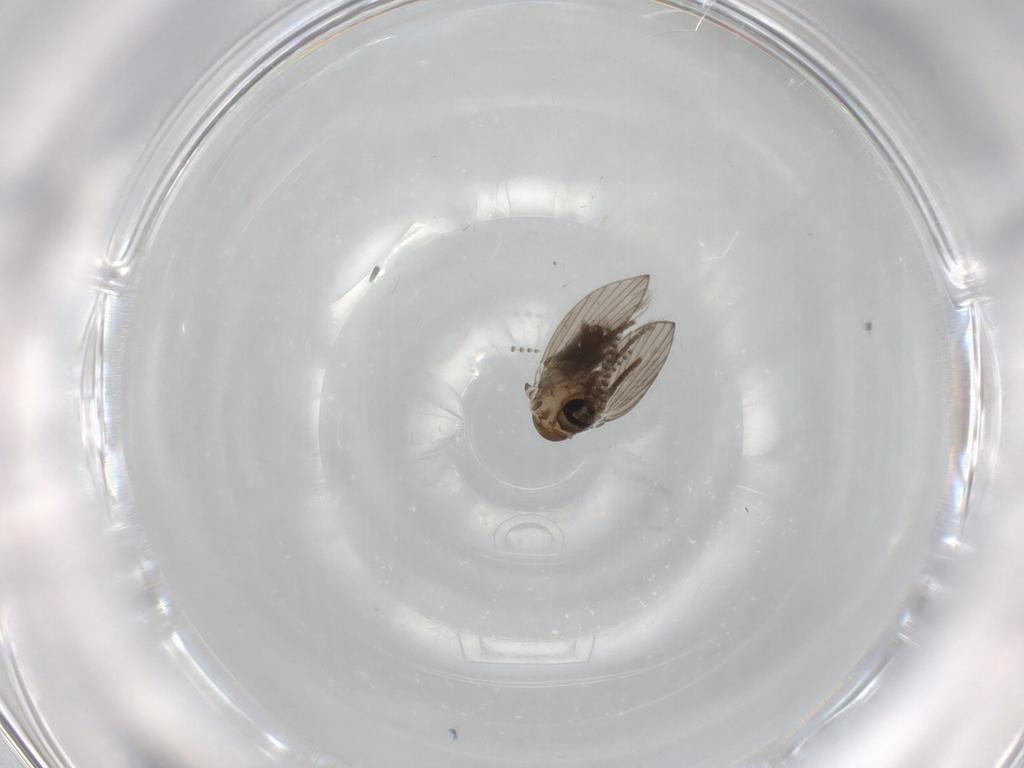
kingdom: Animalia
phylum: Arthropoda
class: Insecta
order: Diptera
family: Psychodidae
